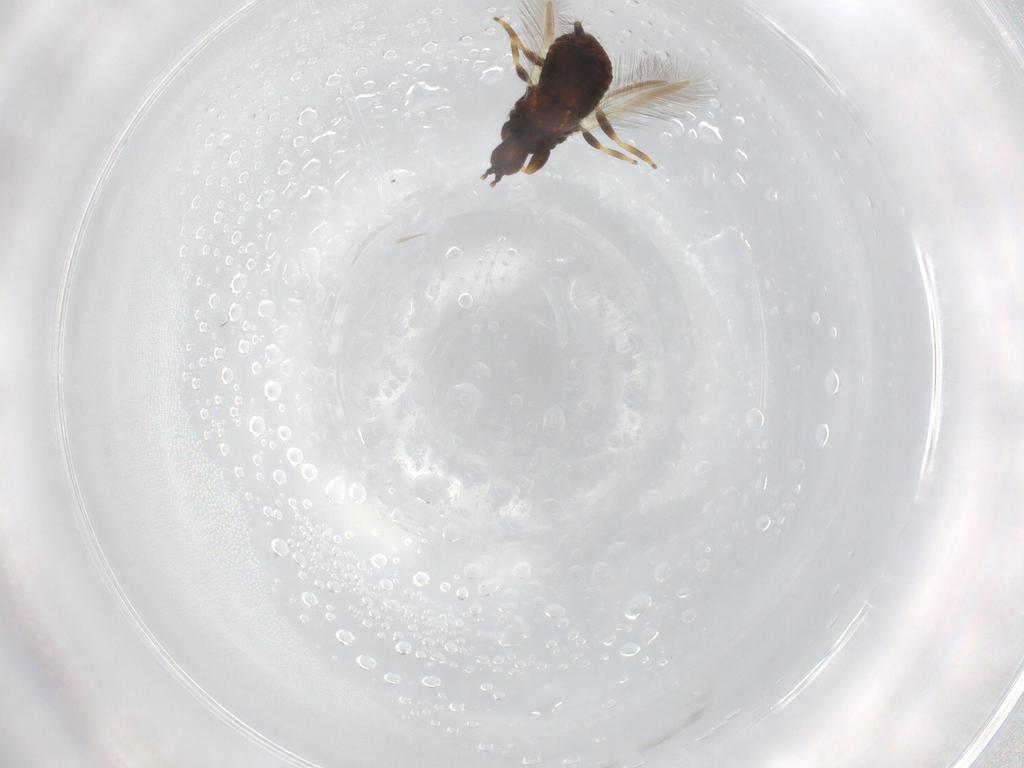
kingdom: Animalia
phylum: Arthropoda
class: Insecta
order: Thysanoptera
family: Phlaeothripidae
